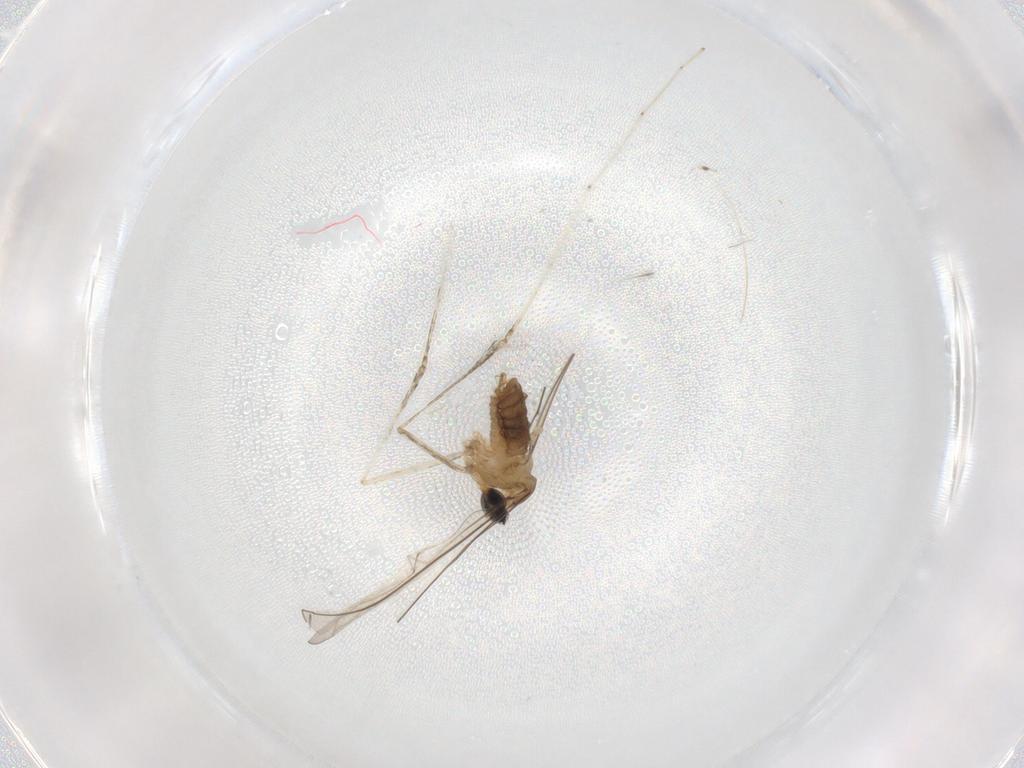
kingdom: Animalia
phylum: Arthropoda
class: Insecta
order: Diptera
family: Cecidomyiidae
